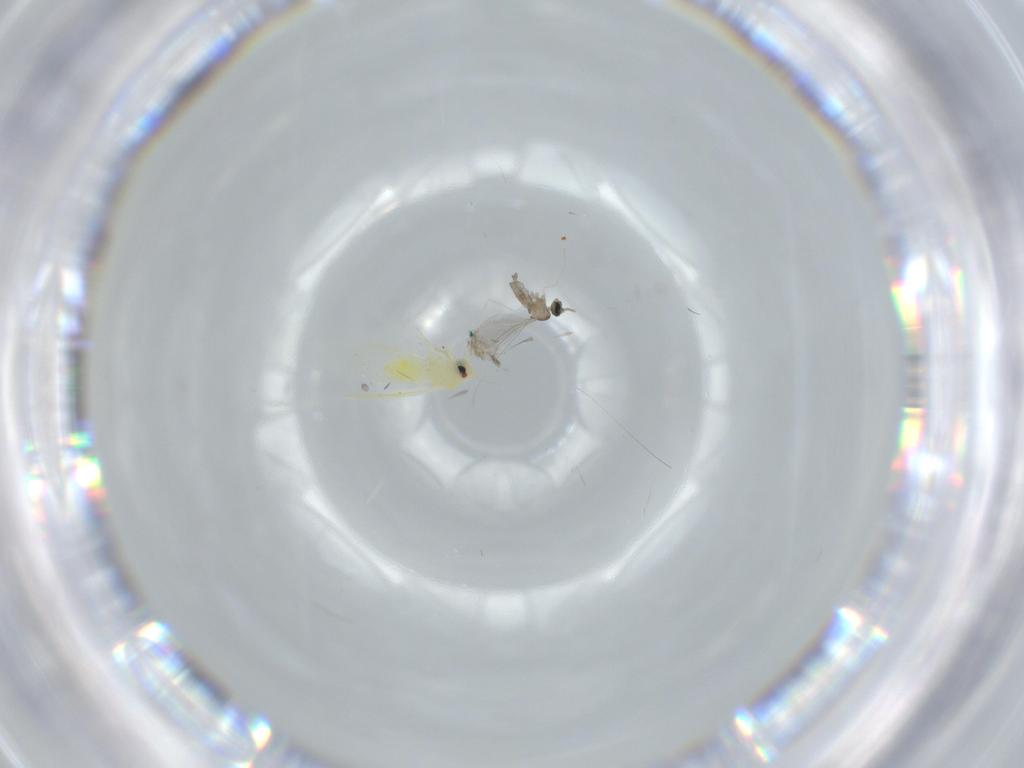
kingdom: Animalia
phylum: Arthropoda
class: Insecta
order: Hemiptera
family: Aleyrodidae
